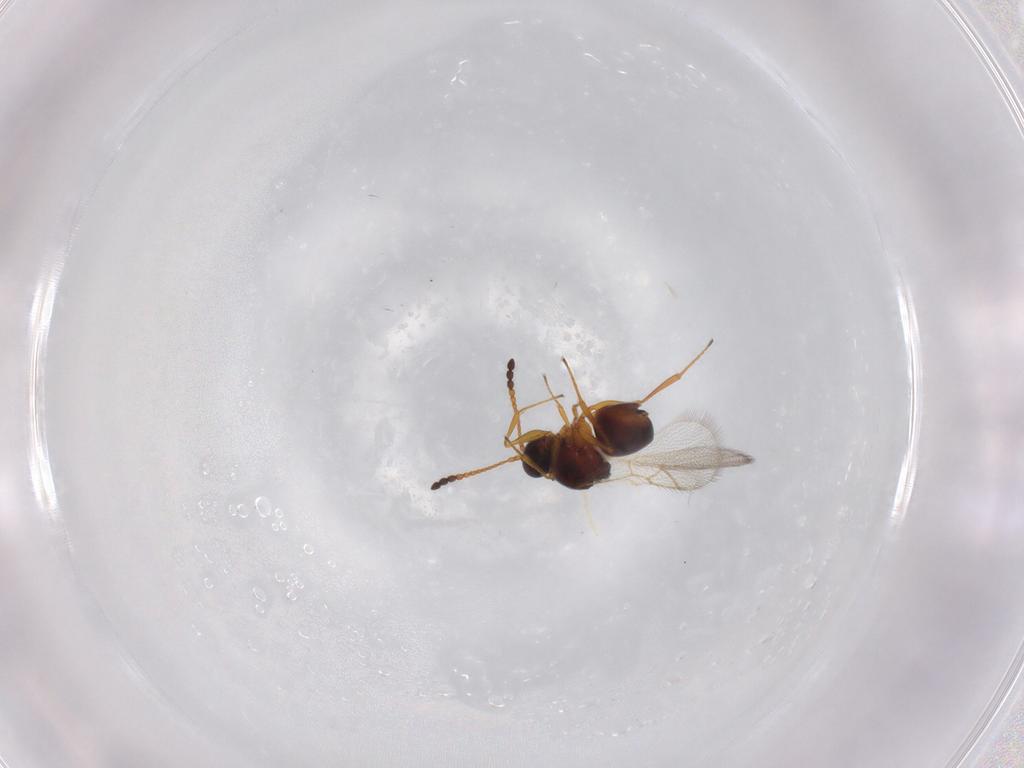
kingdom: Animalia
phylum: Arthropoda
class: Insecta
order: Hymenoptera
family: Figitidae
